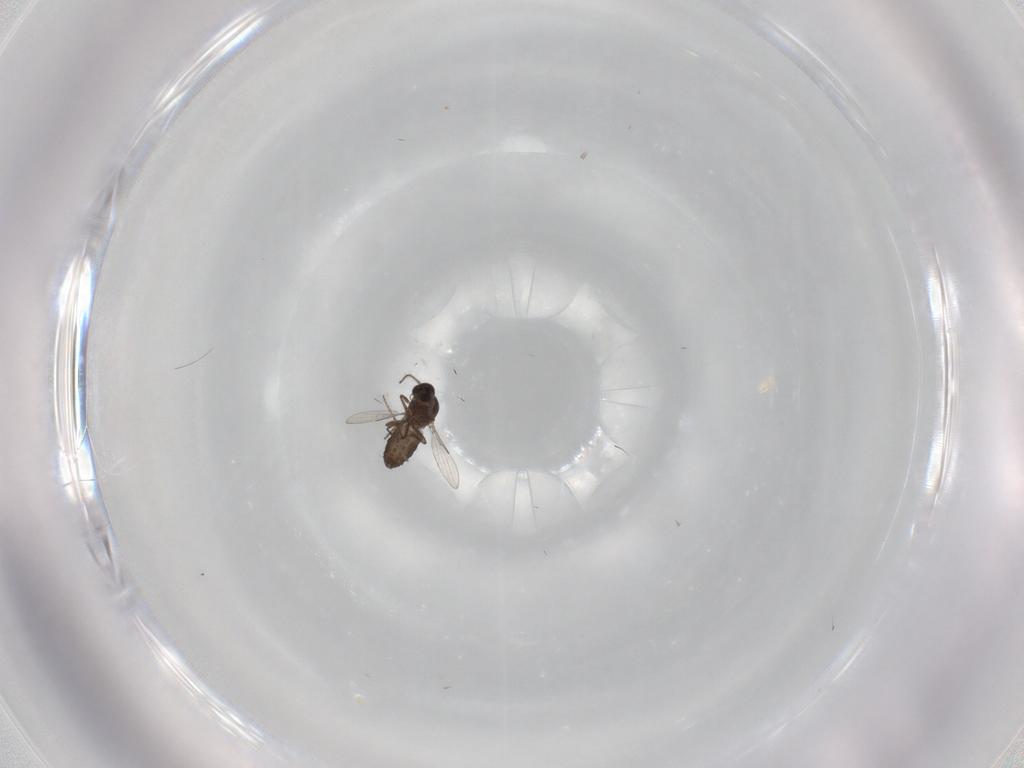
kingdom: Animalia
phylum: Arthropoda
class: Insecta
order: Diptera
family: Ceratopogonidae
